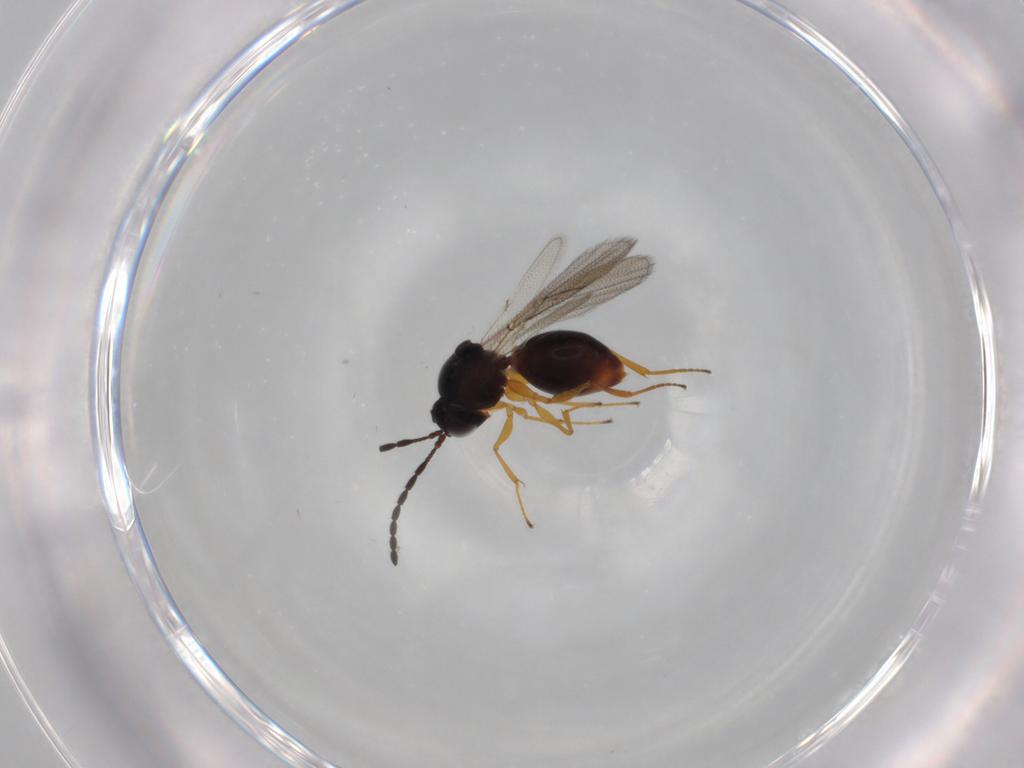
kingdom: Animalia
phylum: Arthropoda
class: Insecta
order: Hymenoptera
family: Figitidae
